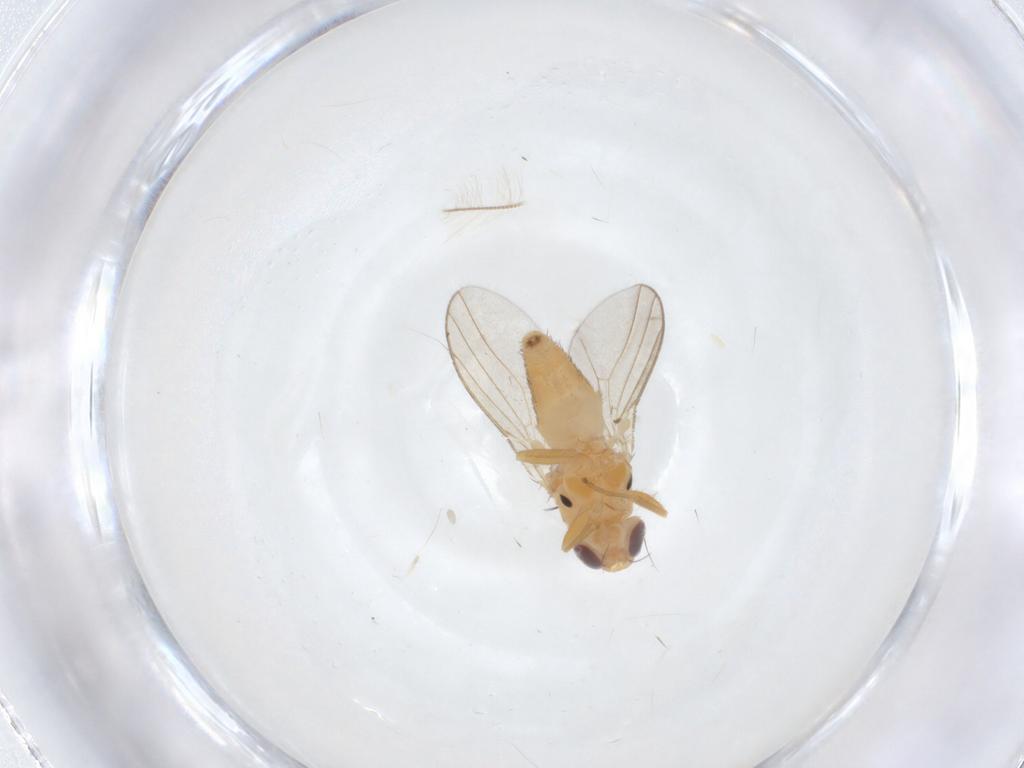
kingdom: Animalia
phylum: Arthropoda
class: Insecta
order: Diptera
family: Chloropidae
